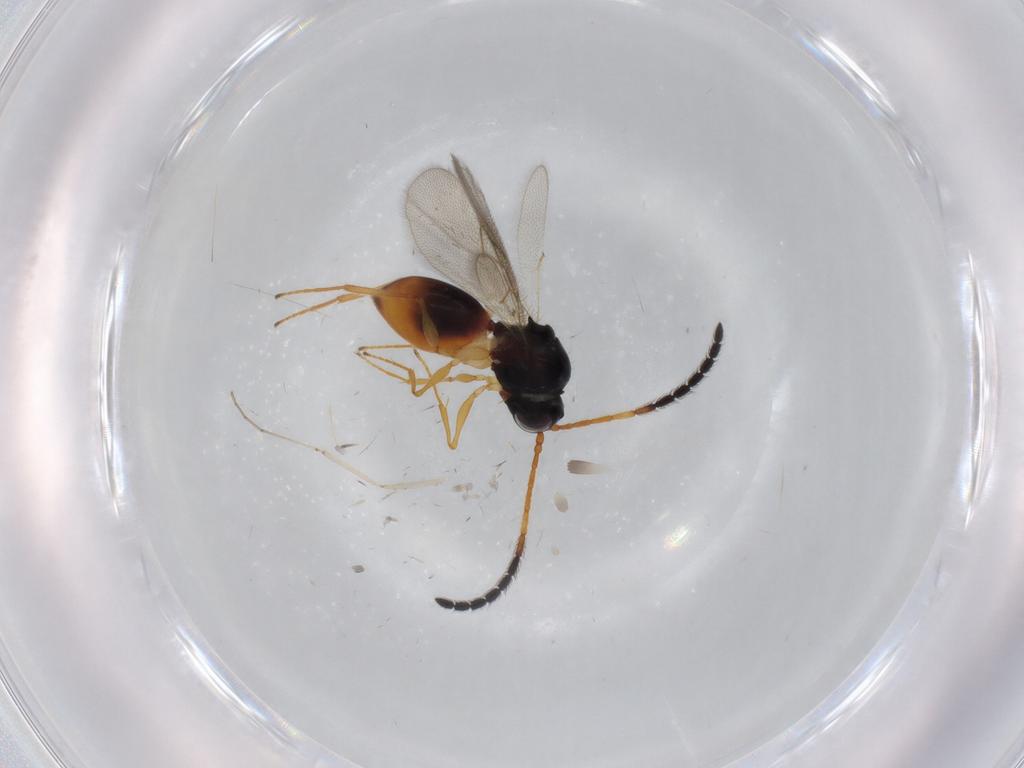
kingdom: Animalia
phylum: Arthropoda
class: Insecta
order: Hymenoptera
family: Figitidae
